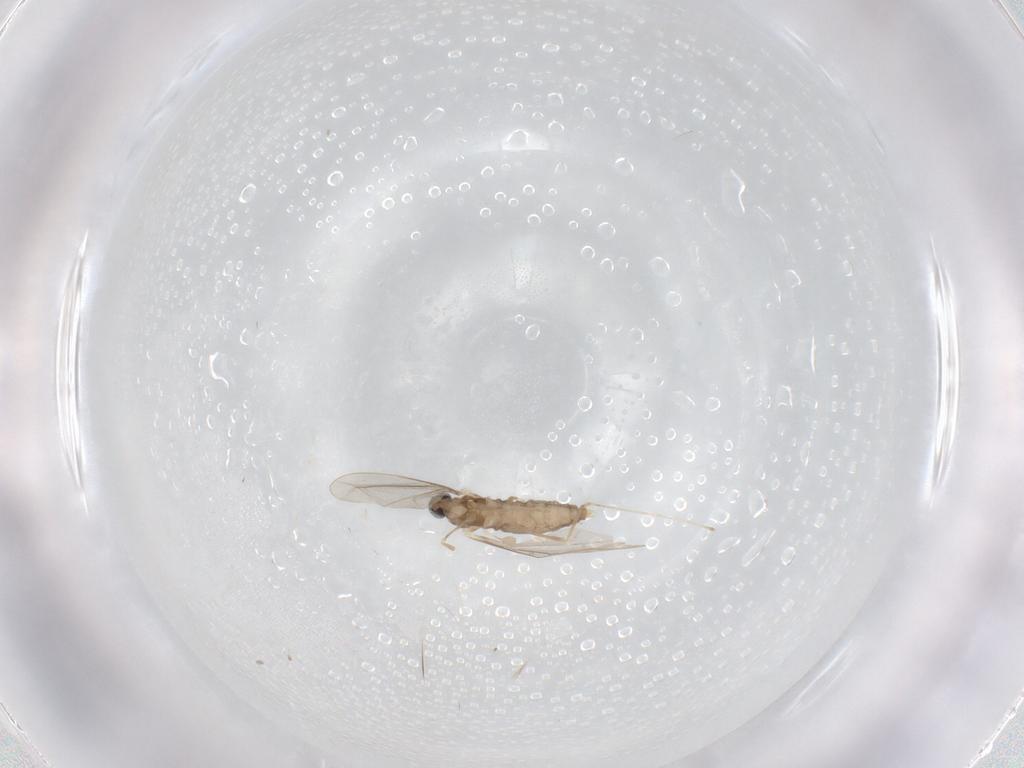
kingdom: Animalia
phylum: Arthropoda
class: Insecta
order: Diptera
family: Cecidomyiidae
